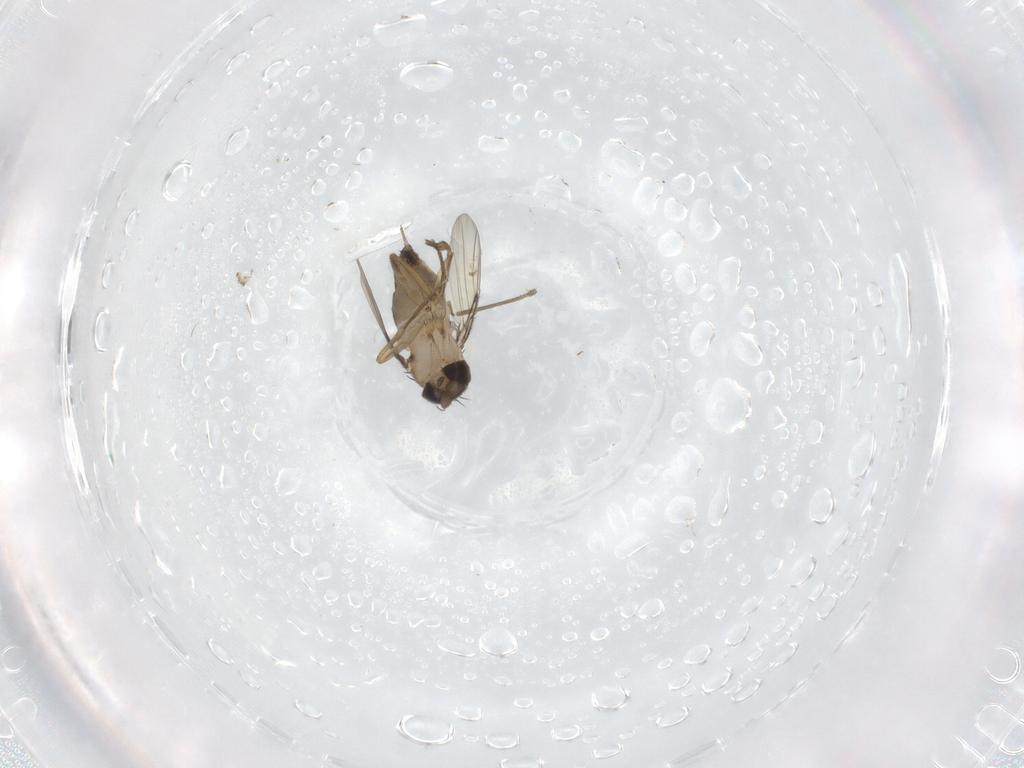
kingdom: Animalia
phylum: Arthropoda
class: Insecta
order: Diptera
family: Phoridae
